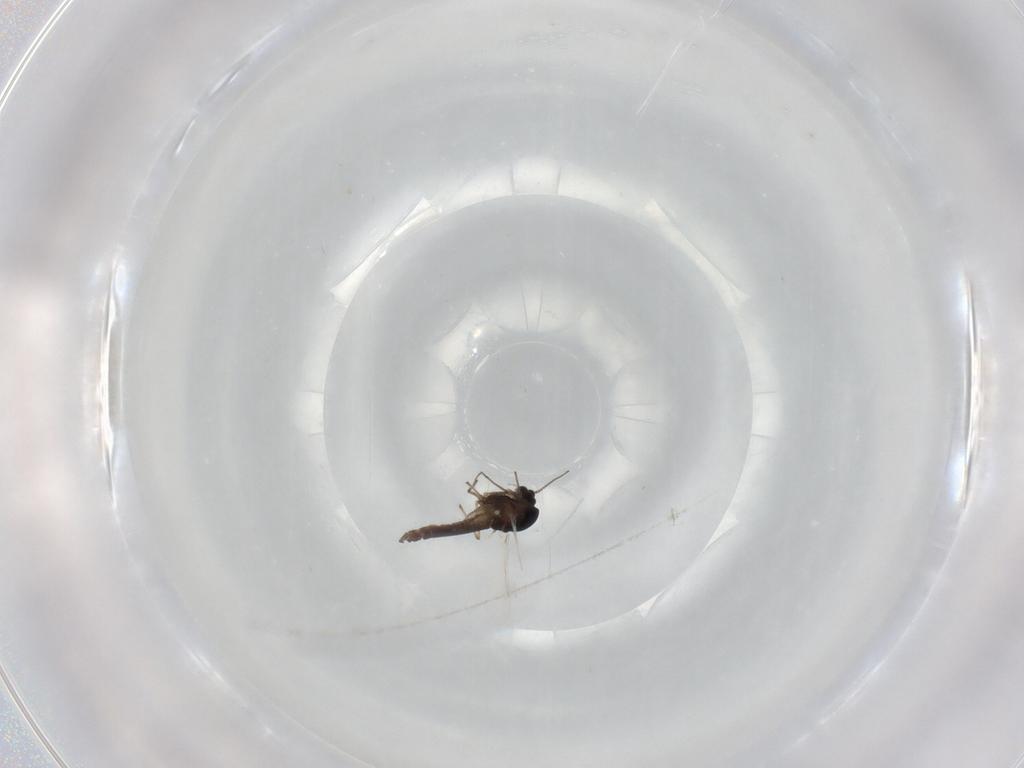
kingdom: Animalia
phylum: Arthropoda
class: Insecta
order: Diptera
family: Chironomidae
